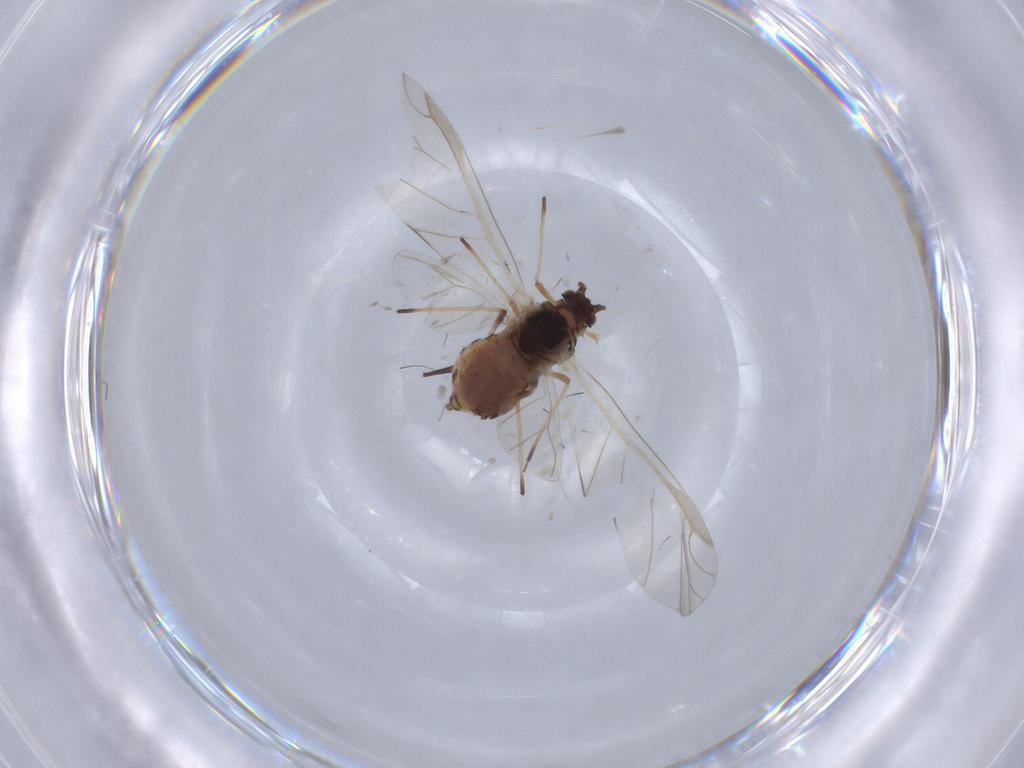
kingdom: Animalia
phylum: Arthropoda
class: Insecta
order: Hemiptera
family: Aphididae
